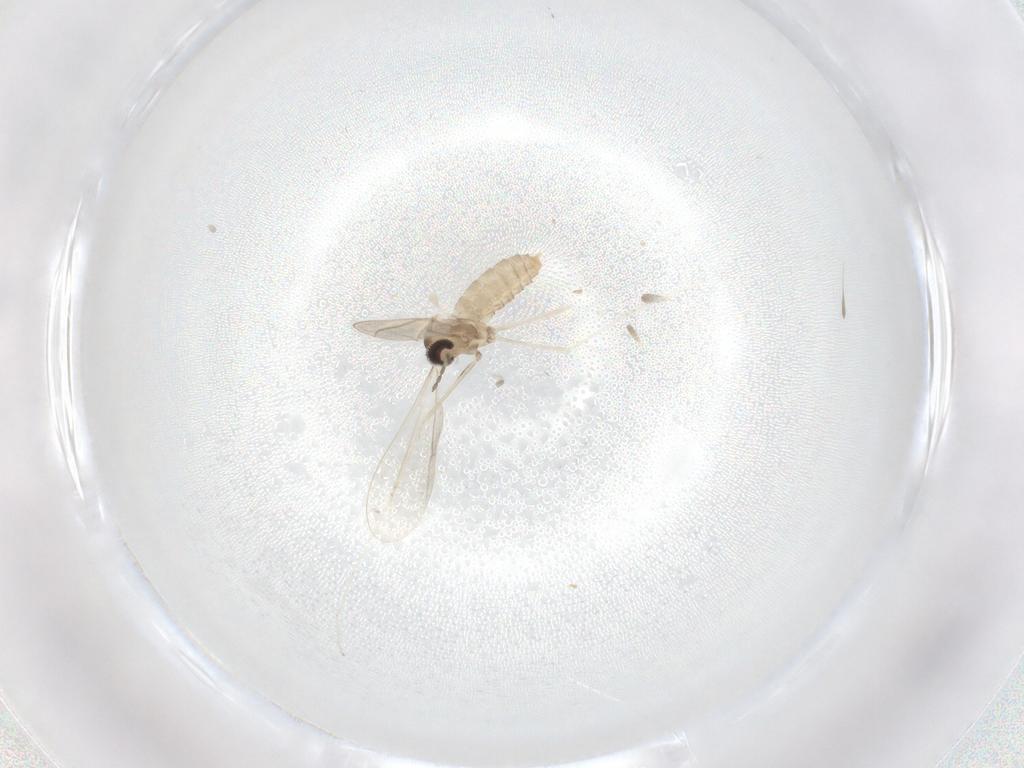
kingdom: Animalia
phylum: Arthropoda
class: Insecta
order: Diptera
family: Cecidomyiidae
